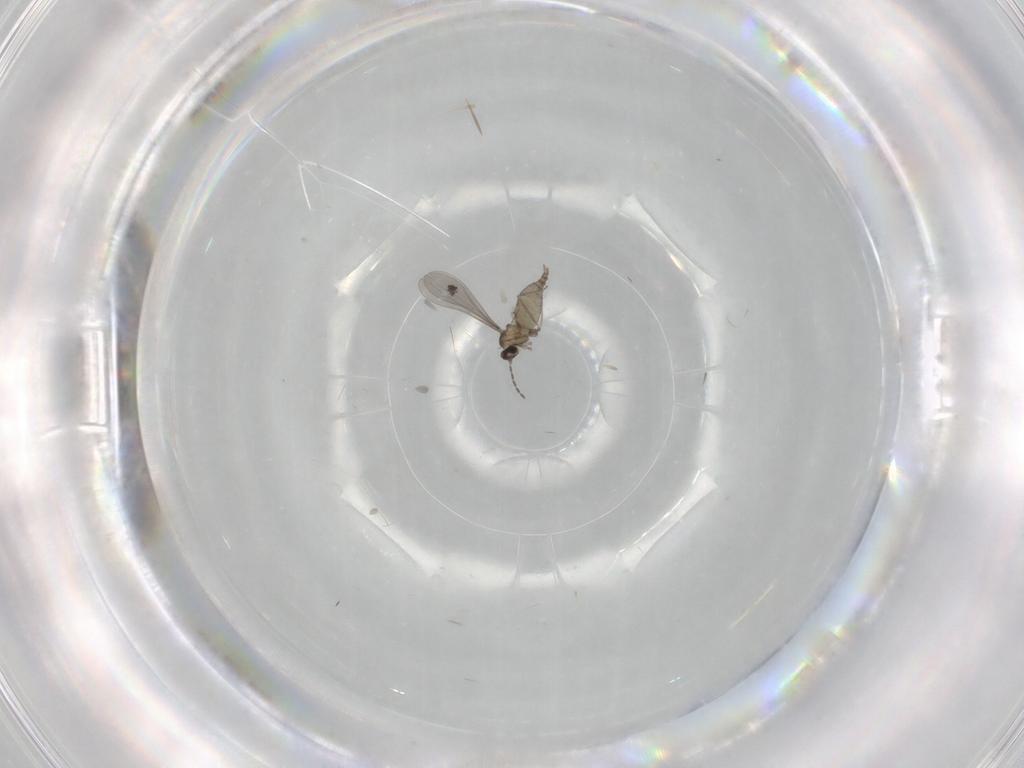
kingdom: Animalia
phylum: Arthropoda
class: Insecta
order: Diptera
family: Cecidomyiidae
